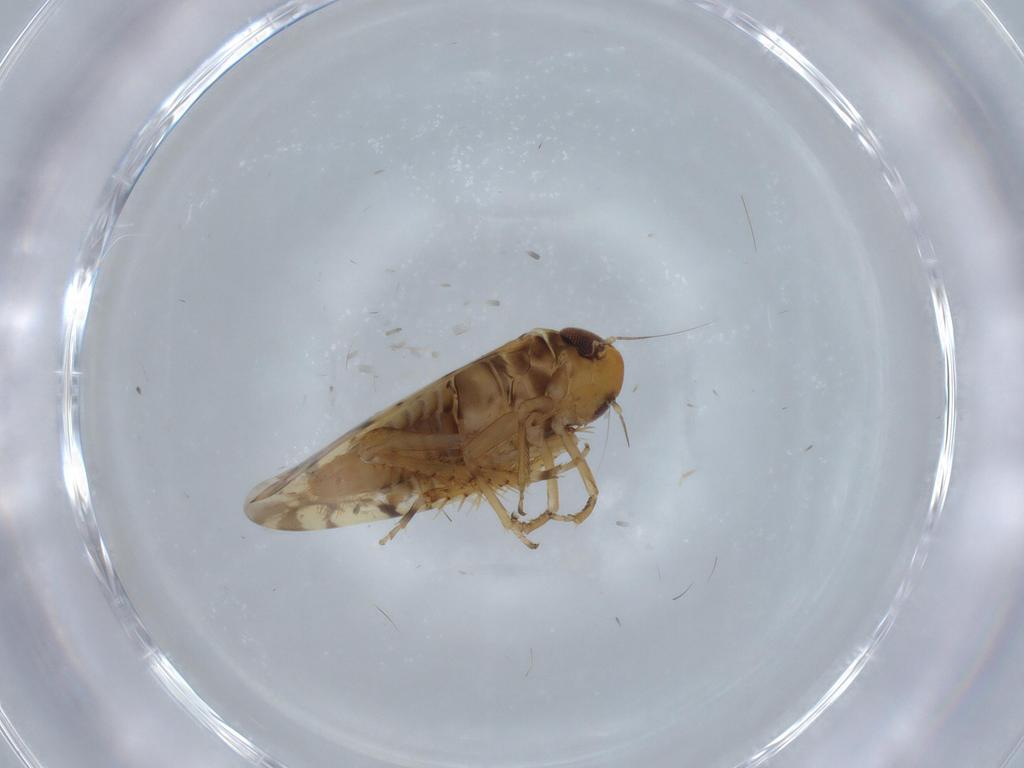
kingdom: Animalia
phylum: Arthropoda
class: Insecta
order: Hemiptera
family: Cicadellidae
